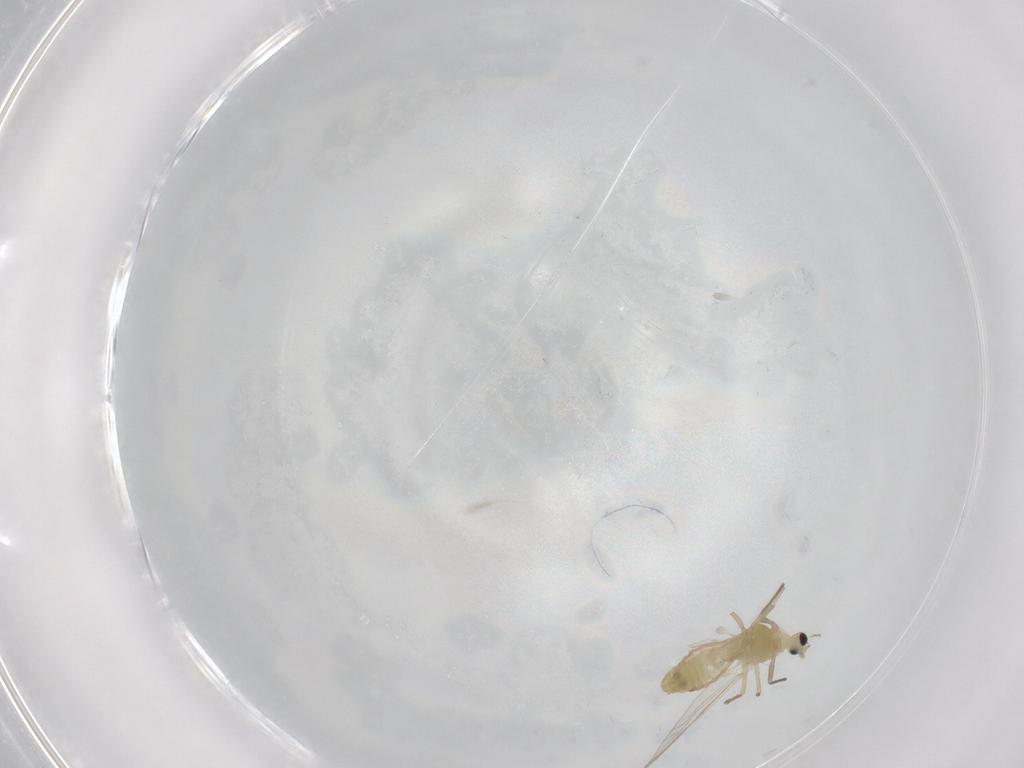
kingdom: Animalia
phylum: Arthropoda
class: Insecta
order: Diptera
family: Chironomidae
